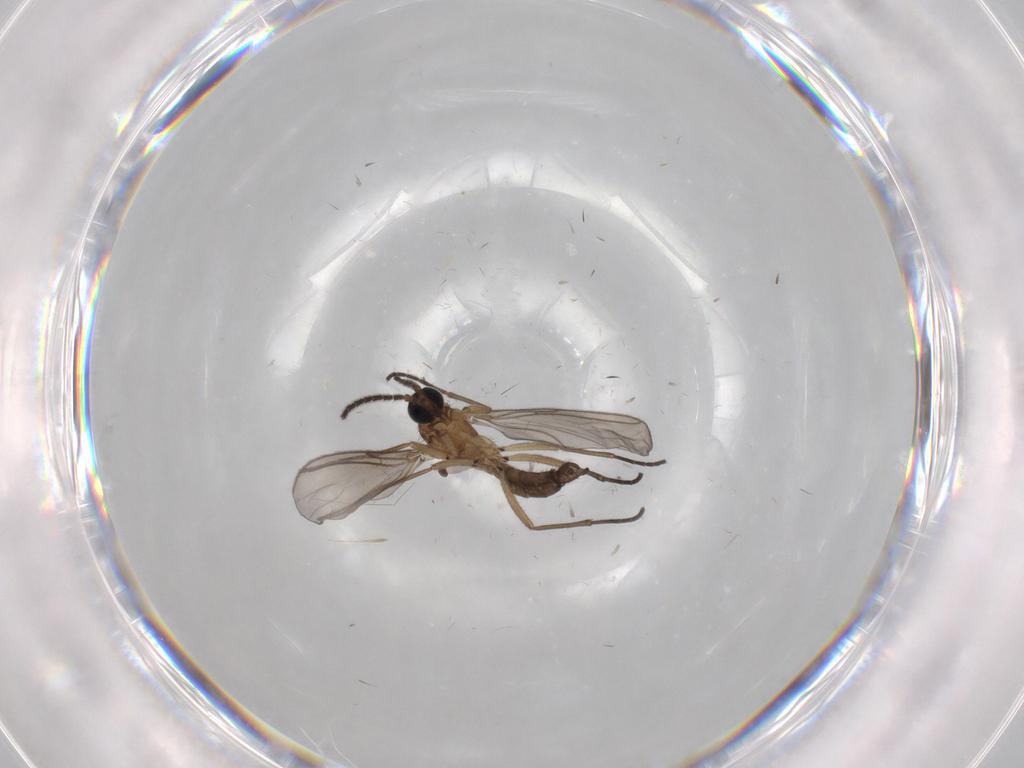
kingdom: Animalia
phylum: Arthropoda
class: Insecta
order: Diptera
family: Sciaridae
